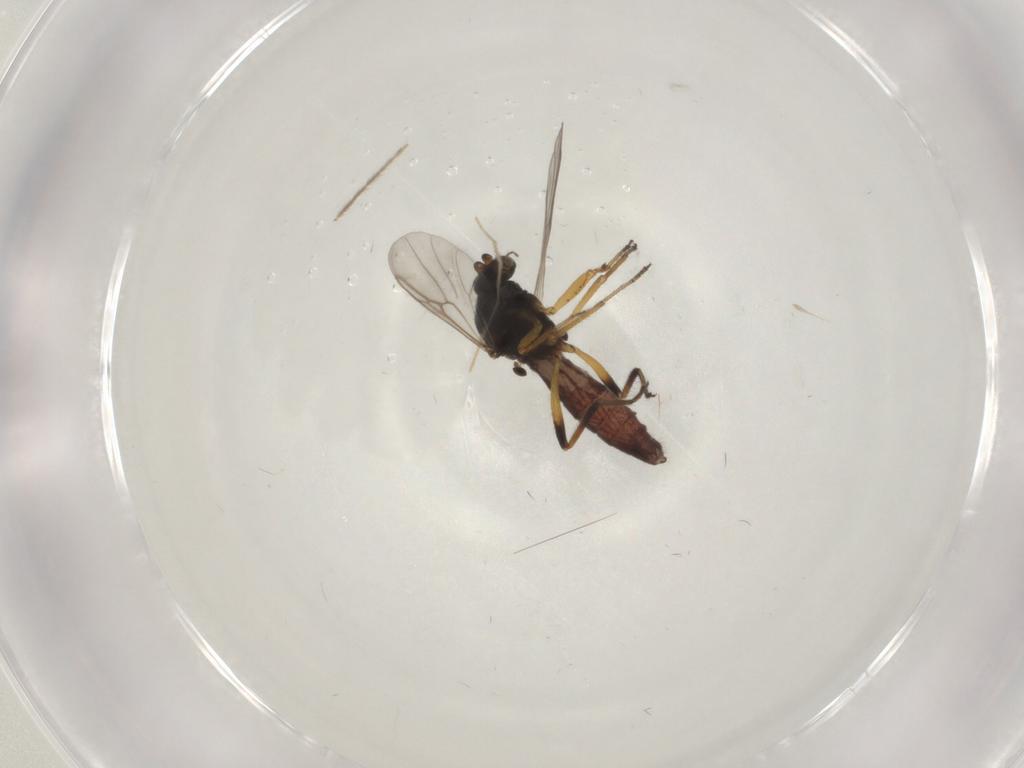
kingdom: Animalia
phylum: Arthropoda
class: Insecta
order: Diptera
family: Chironomidae
